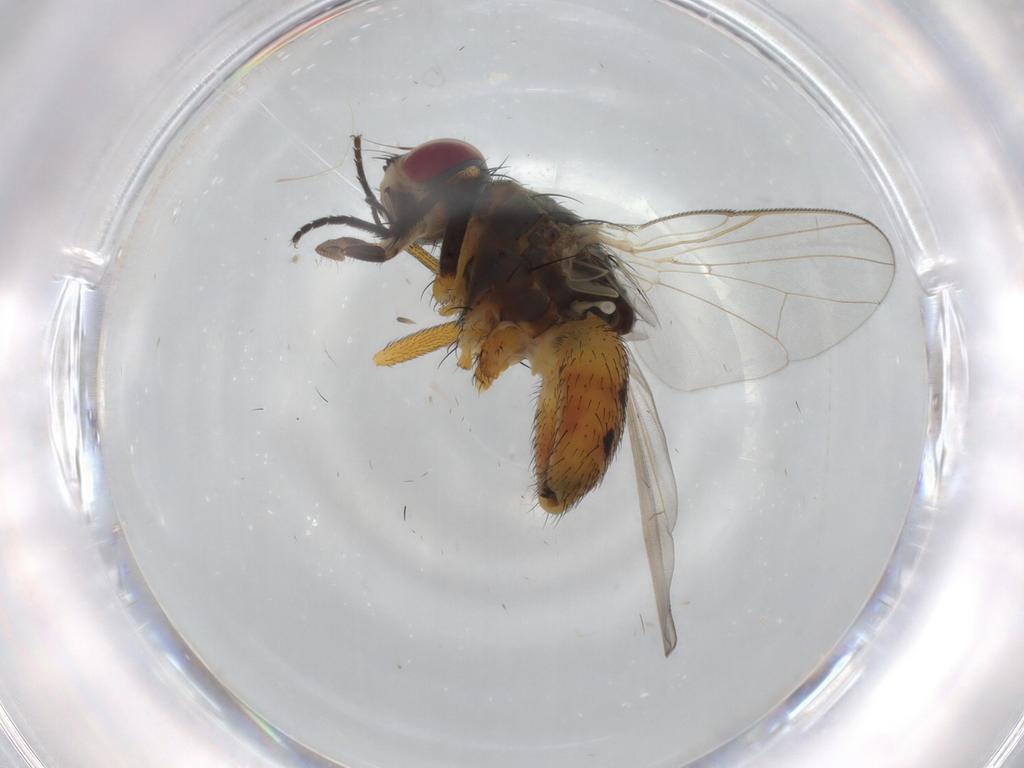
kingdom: Animalia
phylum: Arthropoda
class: Insecta
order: Diptera
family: Muscidae
